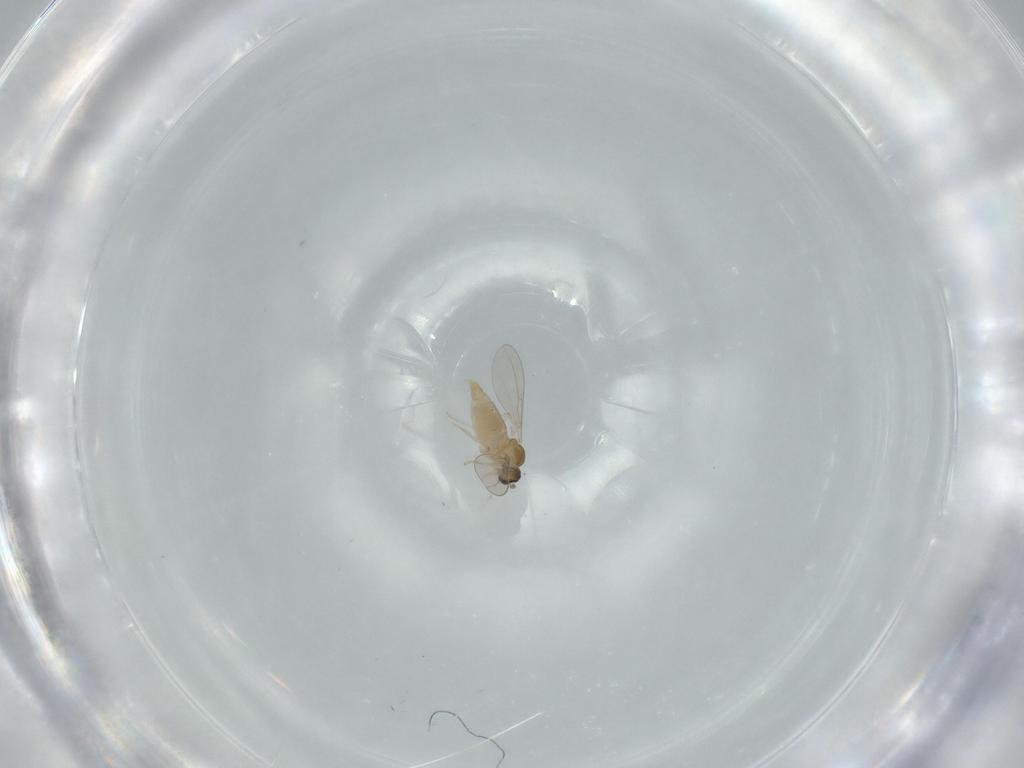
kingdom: Animalia
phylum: Arthropoda
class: Insecta
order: Diptera
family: Cecidomyiidae
